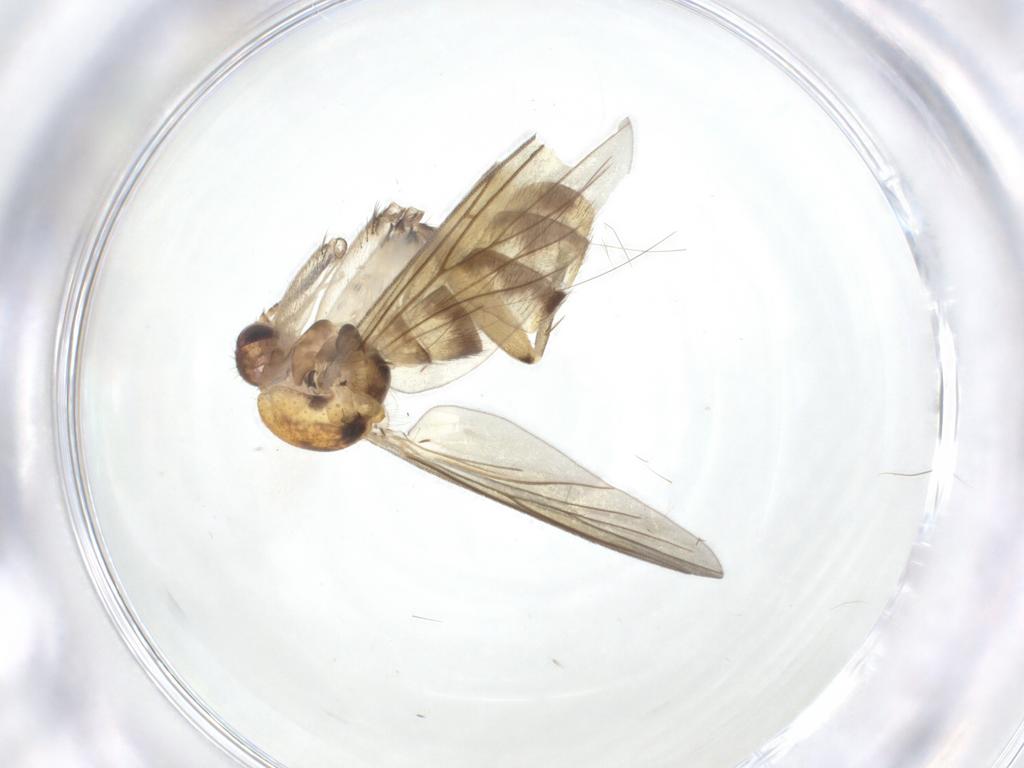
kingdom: Animalia
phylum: Arthropoda
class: Insecta
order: Diptera
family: Mycetophilidae
